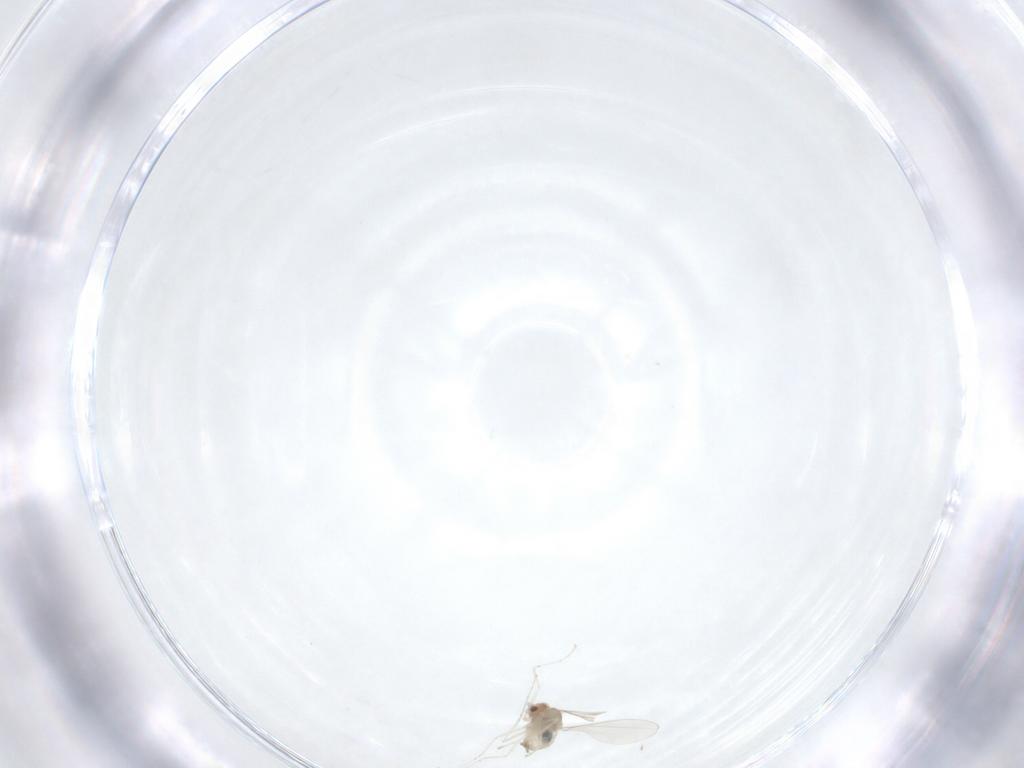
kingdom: Animalia
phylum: Arthropoda
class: Insecta
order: Diptera
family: Cecidomyiidae
